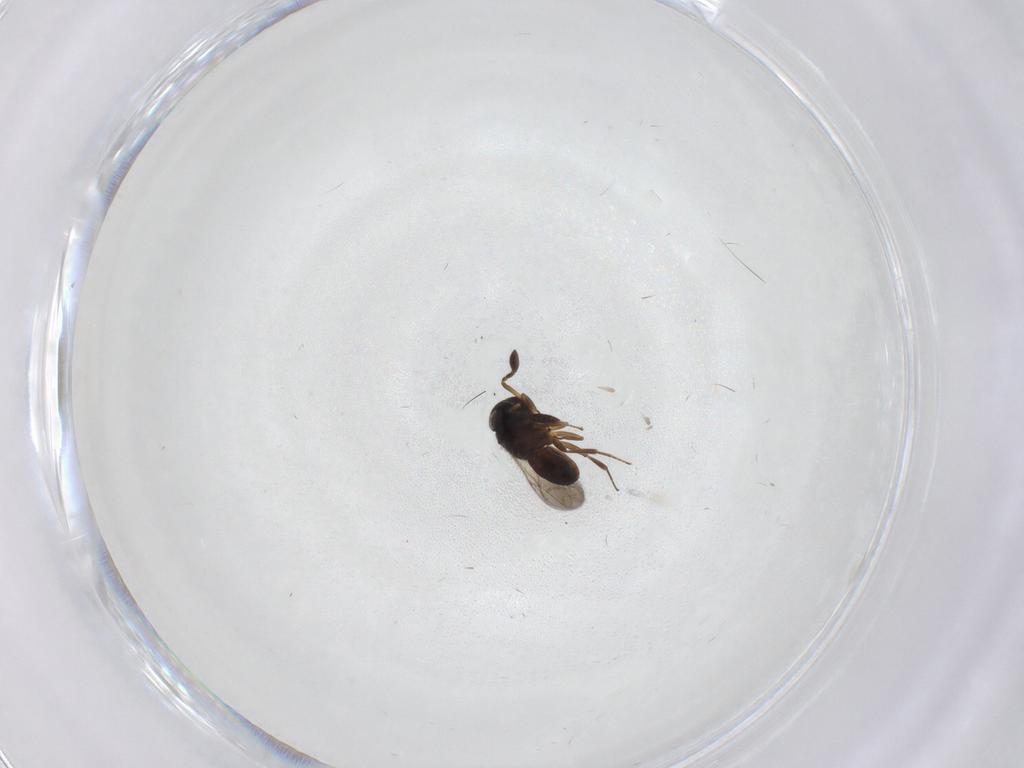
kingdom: Animalia
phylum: Arthropoda
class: Insecta
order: Hymenoptera
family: Scelionidae
